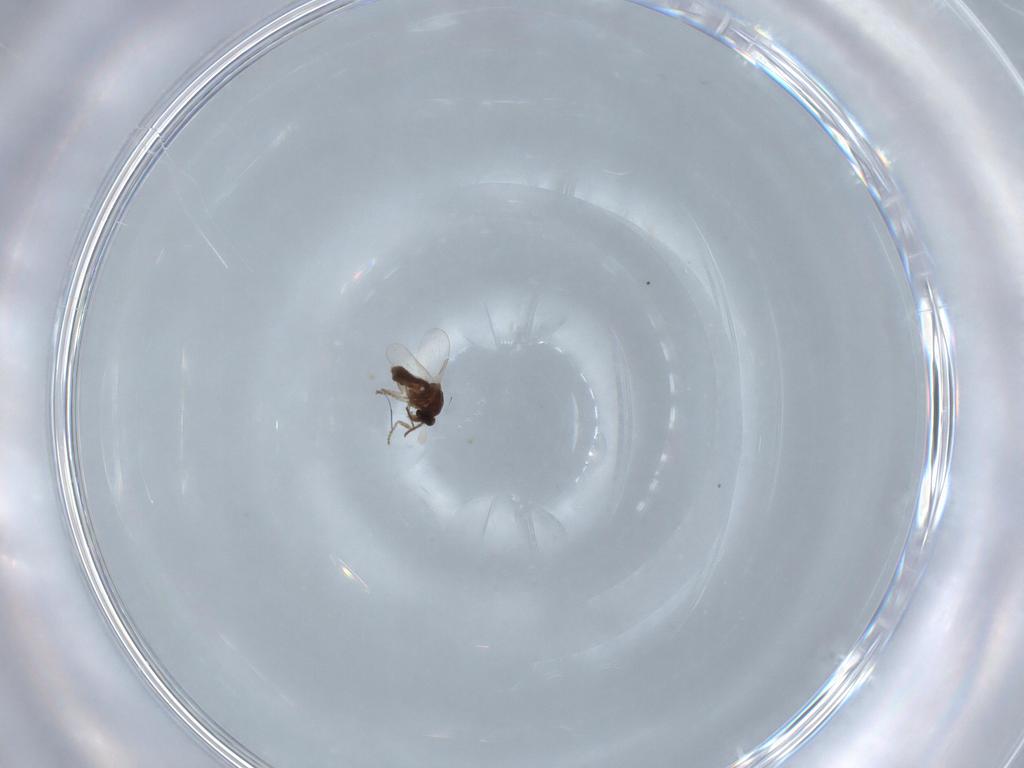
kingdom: Animalia
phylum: Arthropoda
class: Insecta
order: Diptera
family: Ceratopogonidae
